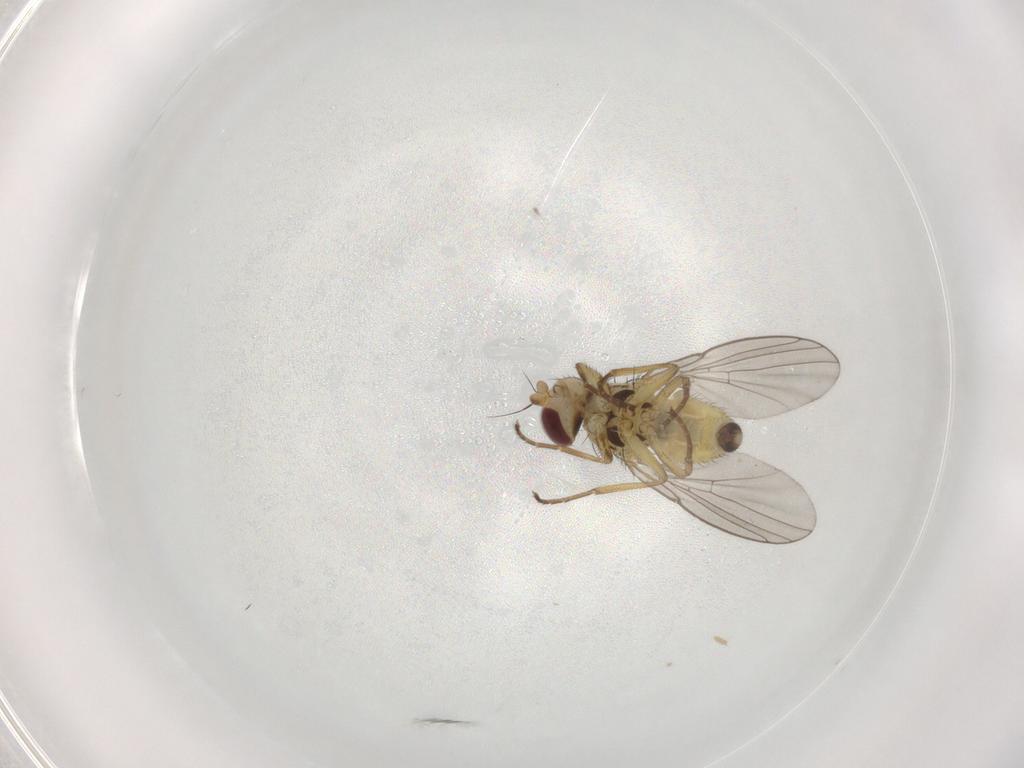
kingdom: Animalia
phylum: Arthropoda
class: Insecta
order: Diptera
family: Agromyzidae
